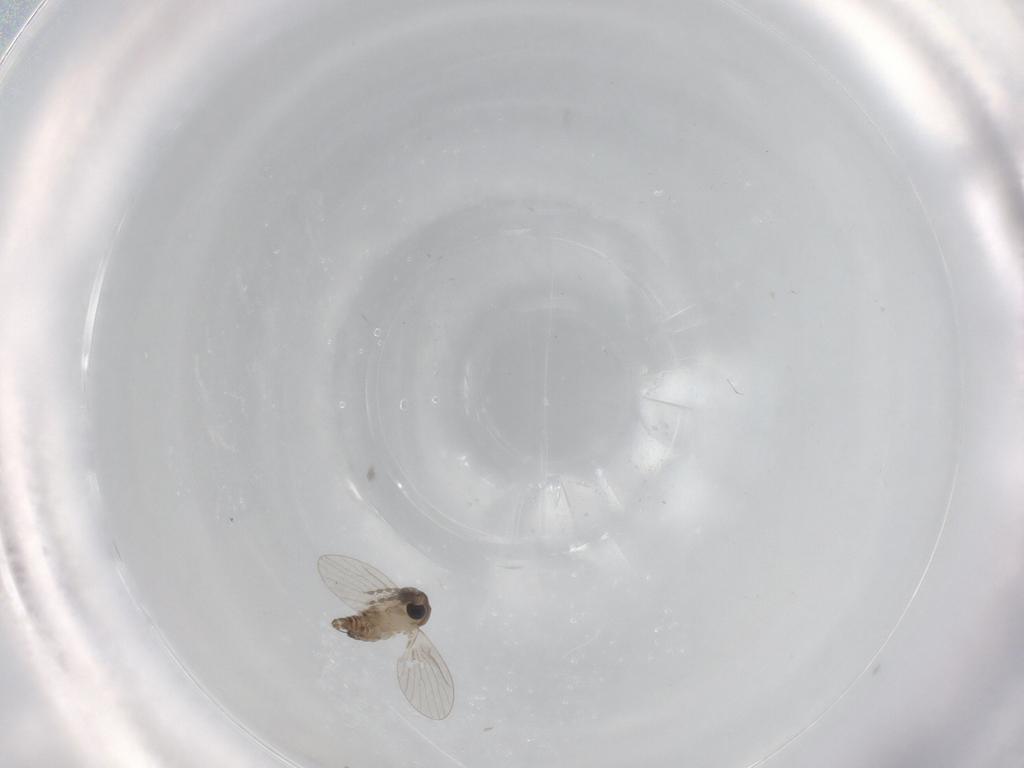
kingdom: Animalia
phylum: Arthropoda
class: Insecta
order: Diptera
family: Psychodidae
